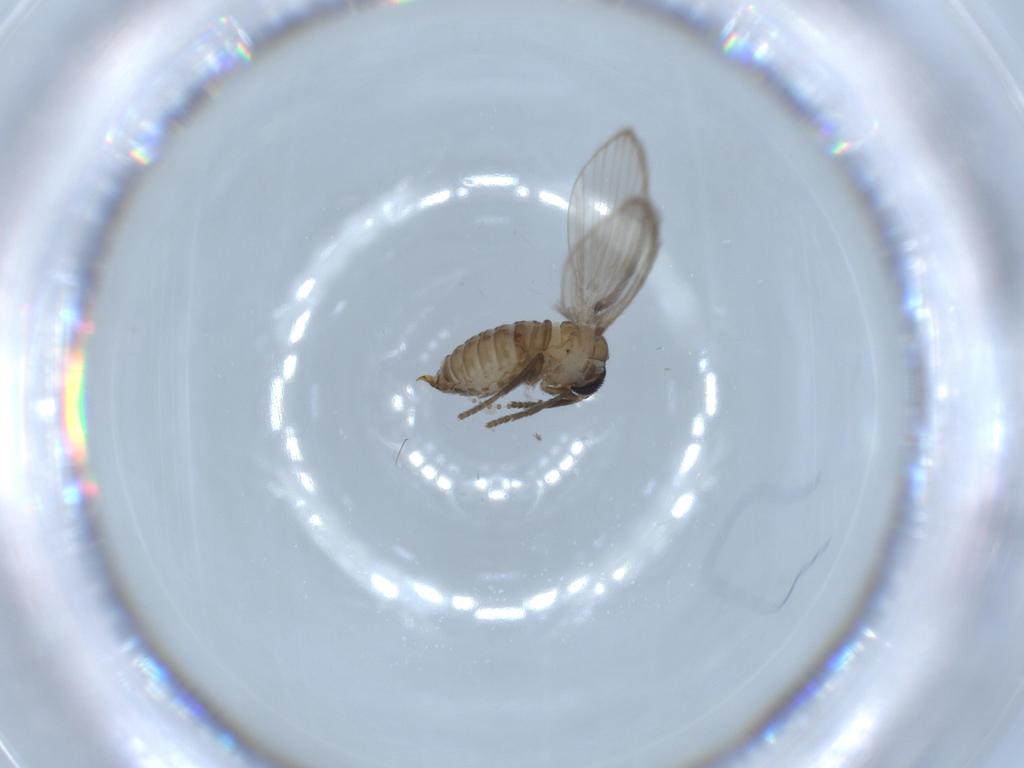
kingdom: Animalia
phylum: Arthropoda
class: Insecta
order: Diptera
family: Psychodidae
